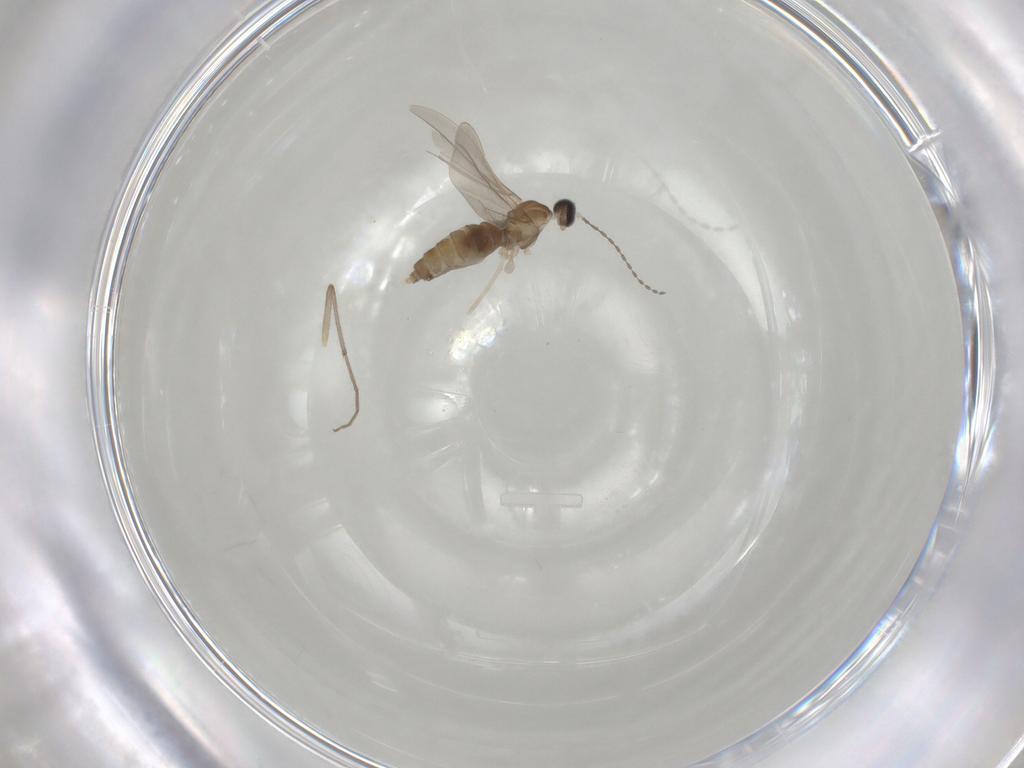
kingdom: Animalia
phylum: Arthropoda
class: Insecta
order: Diptera
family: Cecidomyiidae
